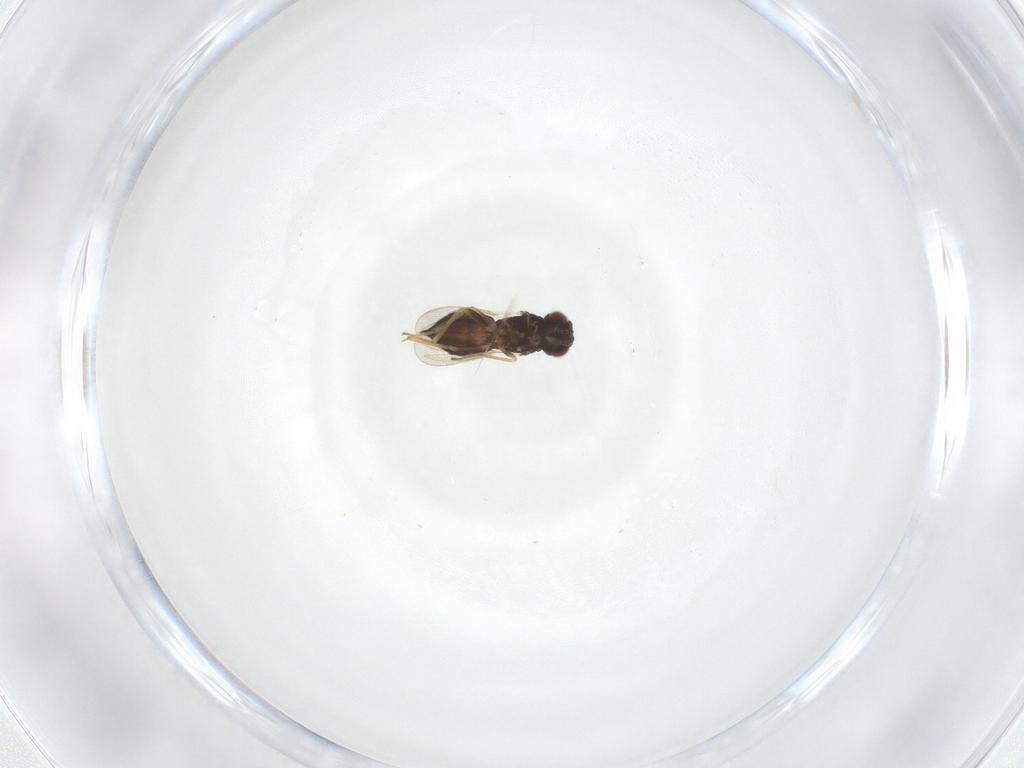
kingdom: Animalia
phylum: Arthropoda
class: Insecta
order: Hymenoptera
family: Eulophidae
